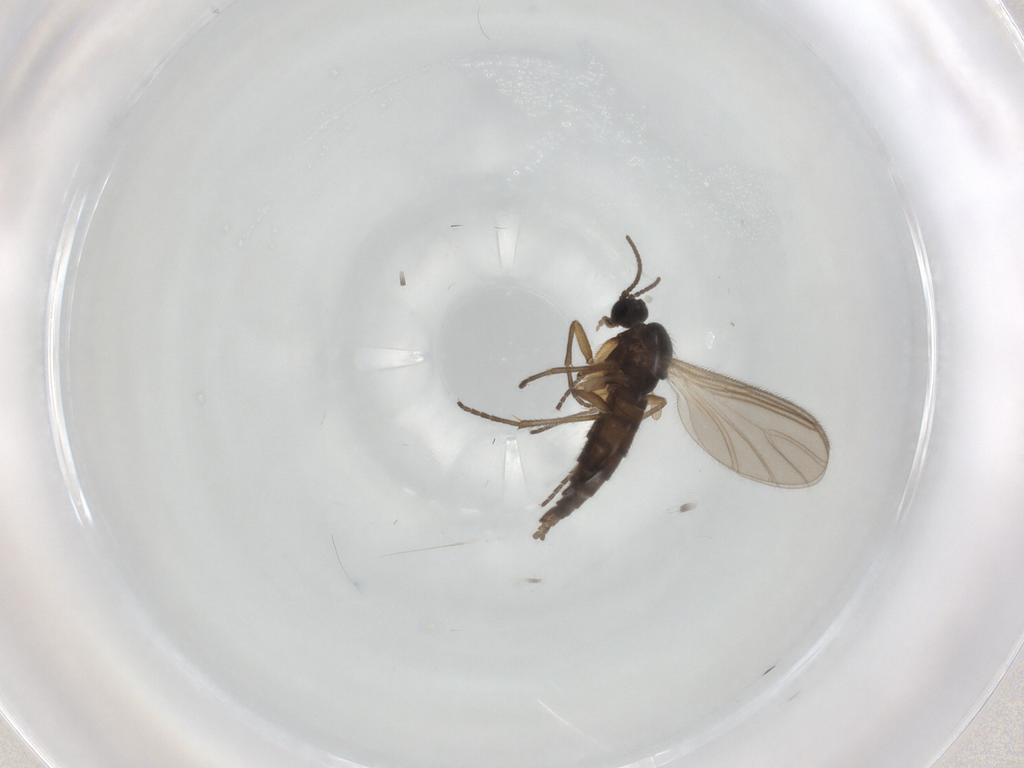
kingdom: Animalia
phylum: Arthropoda
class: Insecta
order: Diptera
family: Sciaridae
